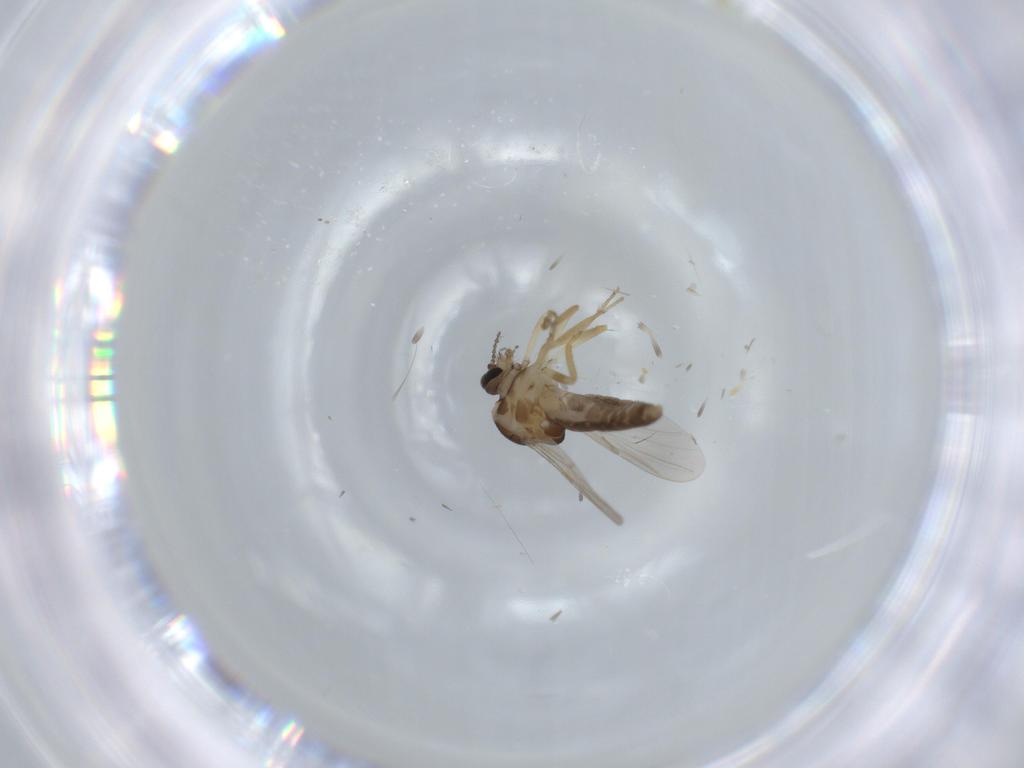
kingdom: Animalia
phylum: Arthropoda
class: Insecta
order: Diptera
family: Ceratopogonidae
